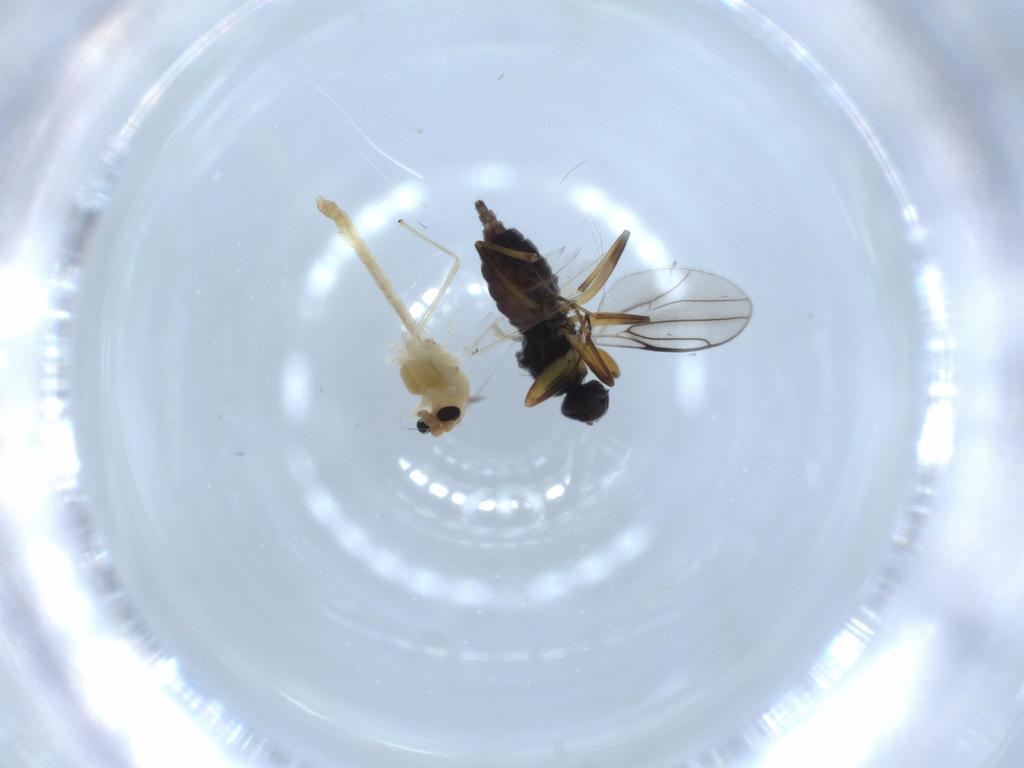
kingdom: Animalia
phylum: Arthropoda
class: Insecta
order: Diptera
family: Hybotidae
